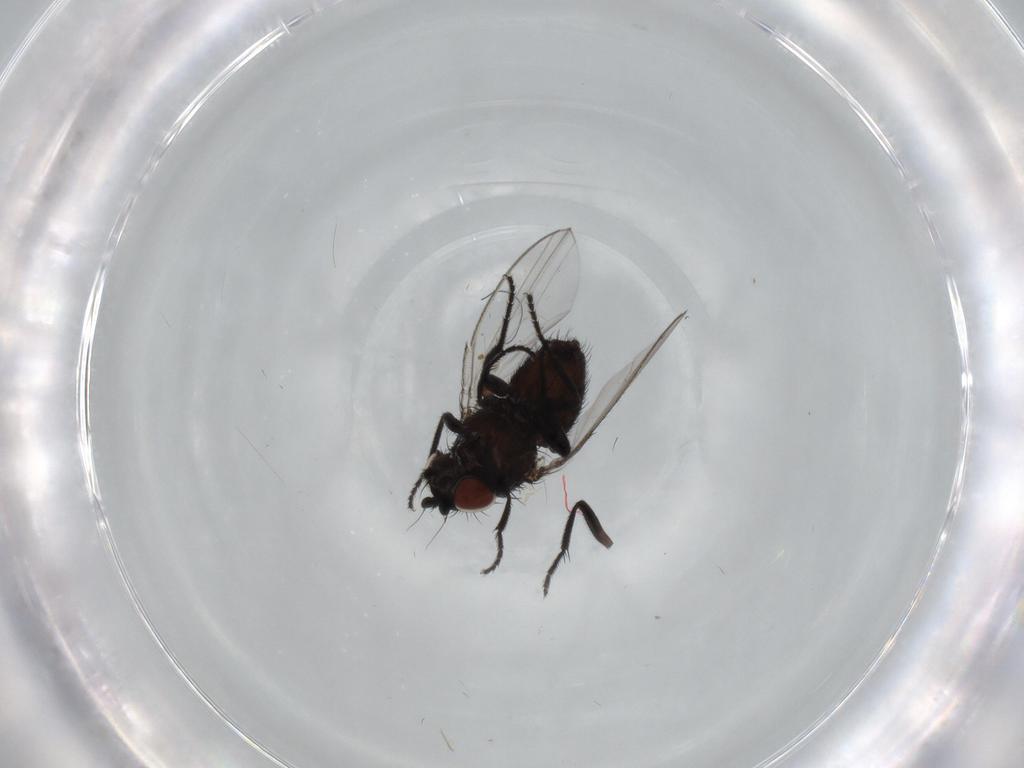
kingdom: Animalia
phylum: Arthropoda
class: Insecta
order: Diptera
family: Milichiidae
